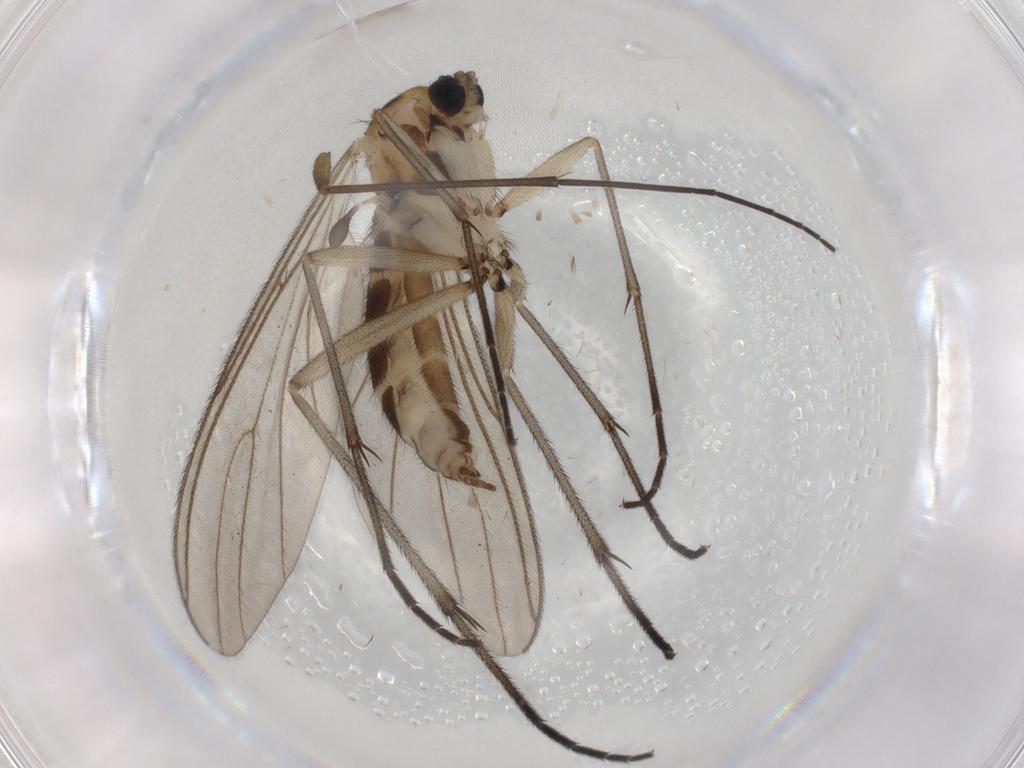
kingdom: Animalia
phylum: Arthropoda
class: Insecta
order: Diptera
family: Sciaridae
